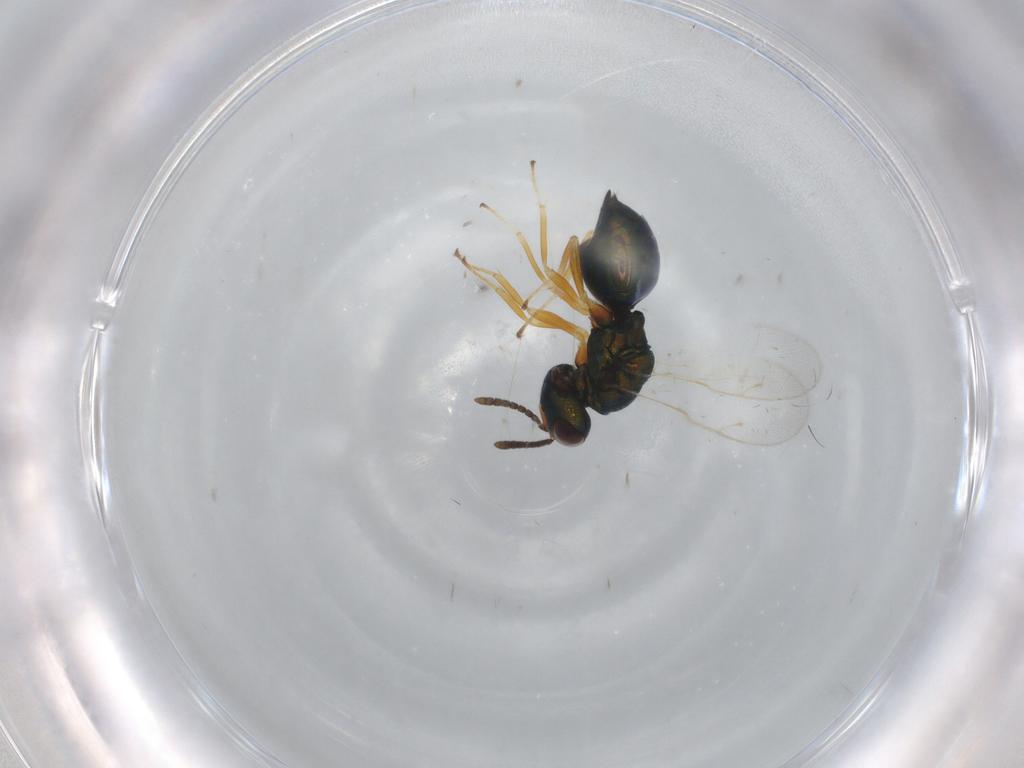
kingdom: Animalia
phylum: Arthropoda
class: Insecta
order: Hymenoptera
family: Pteromalidae
